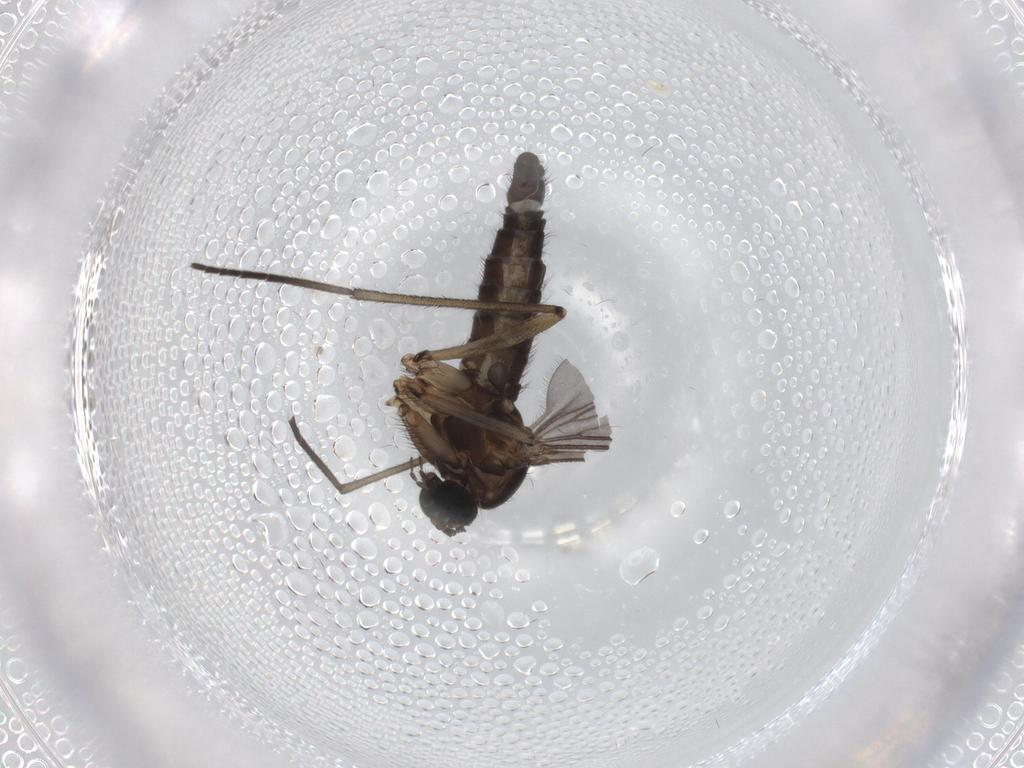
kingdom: Animalia
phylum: Arthropoda
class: Insecta
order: Diptera
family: Sciaridae
